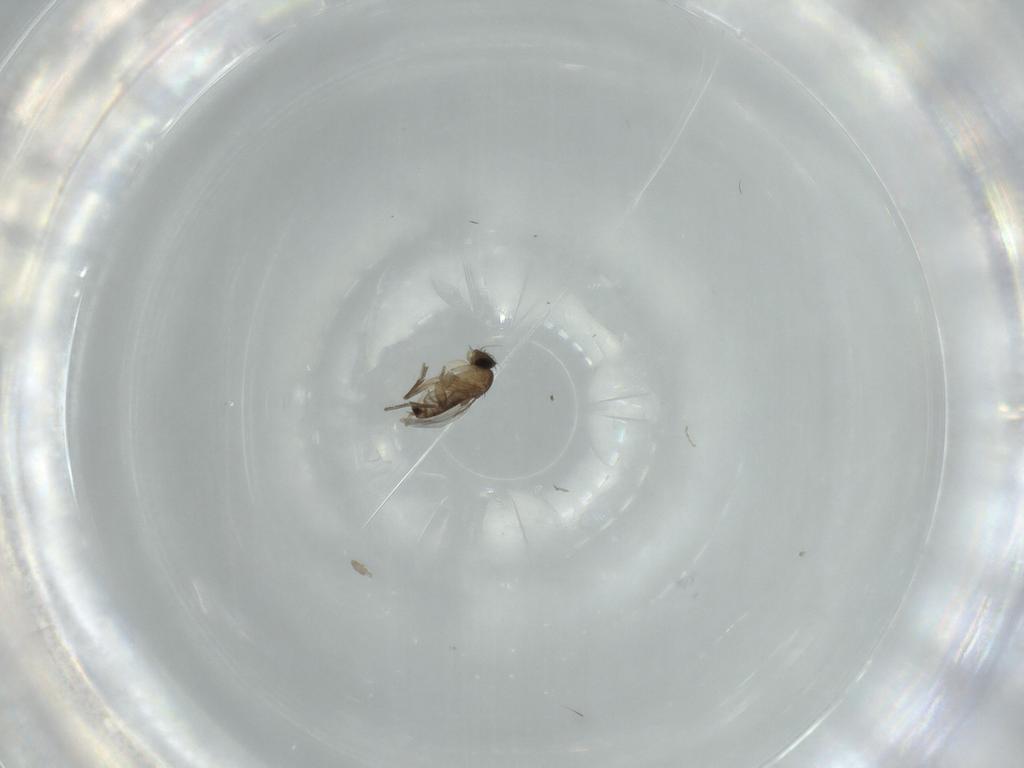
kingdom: Animalia
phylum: Arthropoda
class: Insecta
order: Diptera
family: Phoridae
